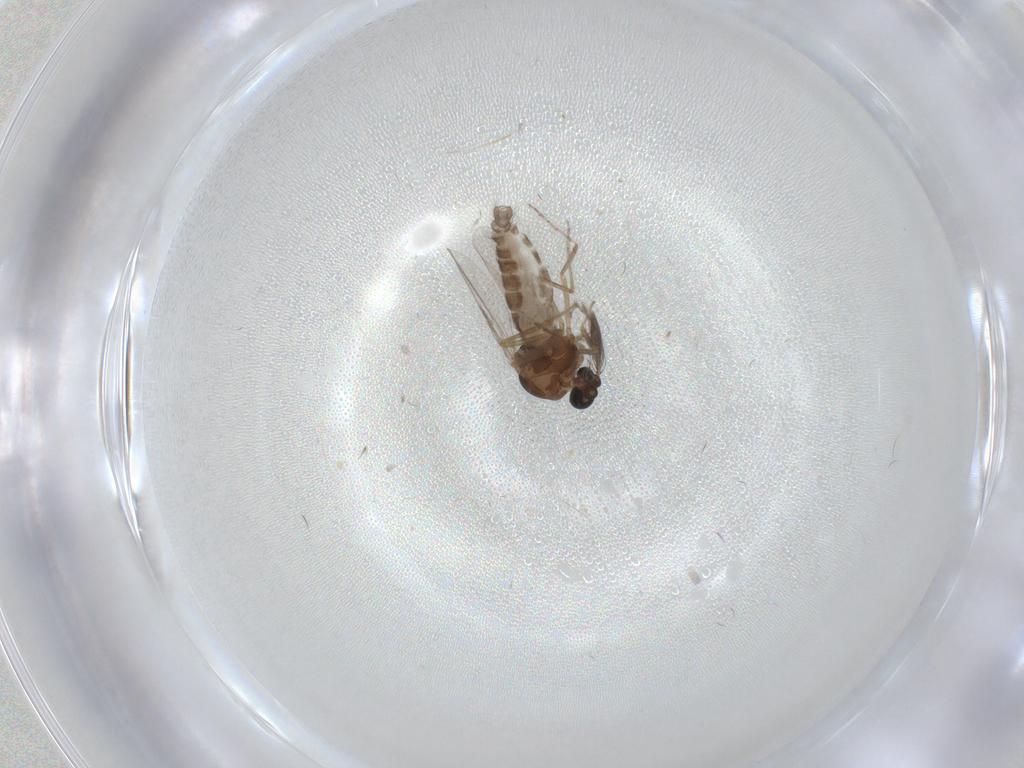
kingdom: Animalia
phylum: Arthropoda
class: Insecta
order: Diptera
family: Ceratopogonidae
